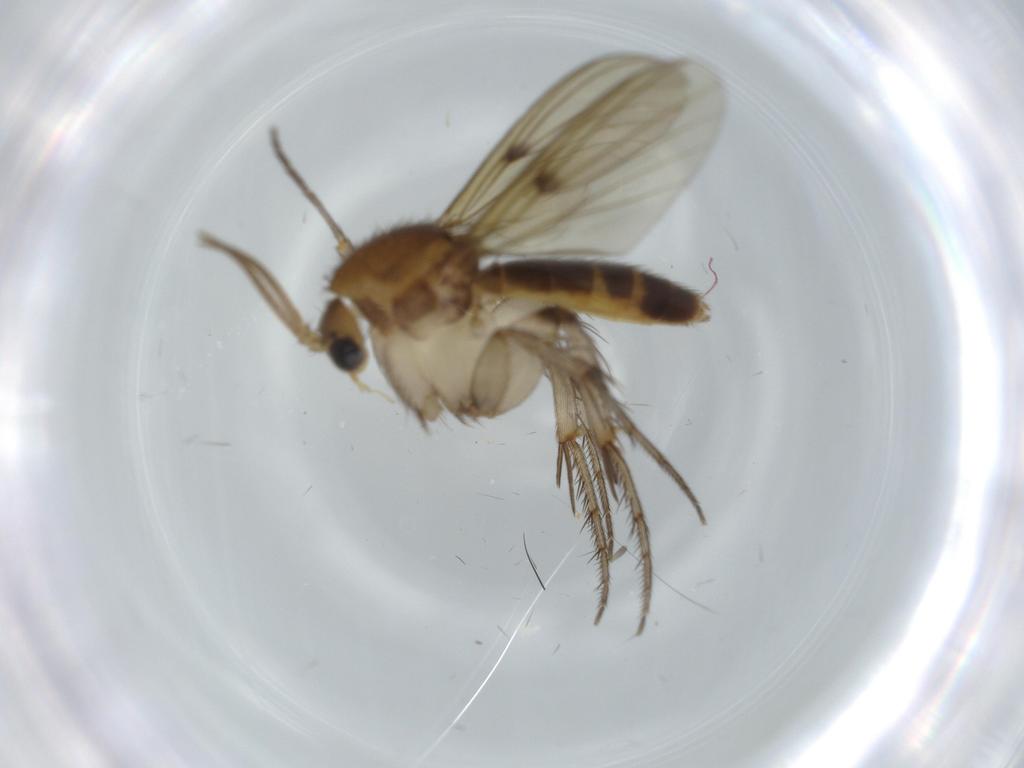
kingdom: Animalia
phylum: Arthropoda
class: Insecta
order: Diptera
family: Mycetophilidae
